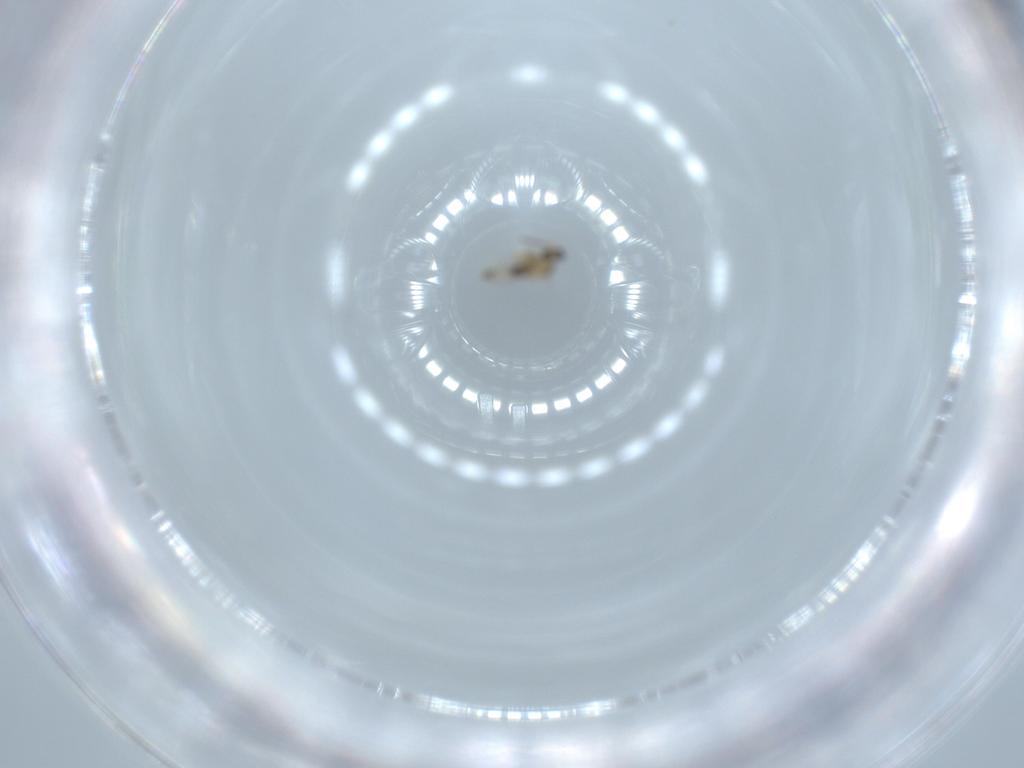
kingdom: Animalia
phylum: Arthropoda
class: Insecta
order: Diptera
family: Cecidomyiidae
